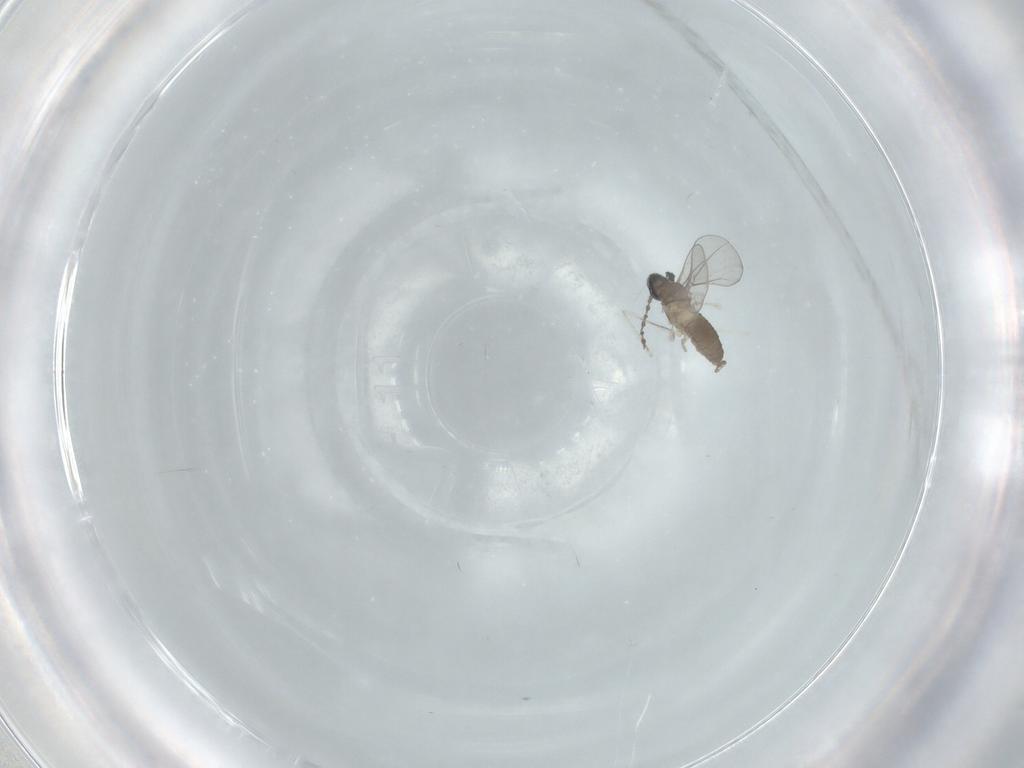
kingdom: Animalia
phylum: Arthropoda
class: Insecta
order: Diptera
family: Cecidomyiidae
